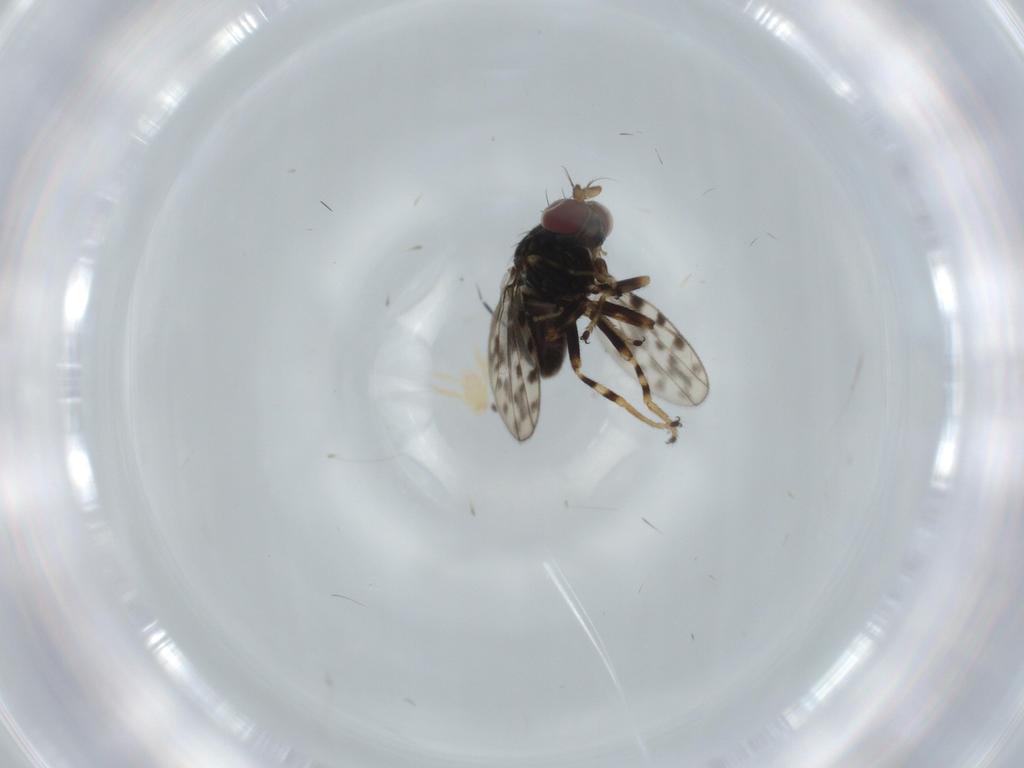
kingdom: Animalia
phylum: Arthropoda
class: Insecta
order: Diptera
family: Ephydridae
